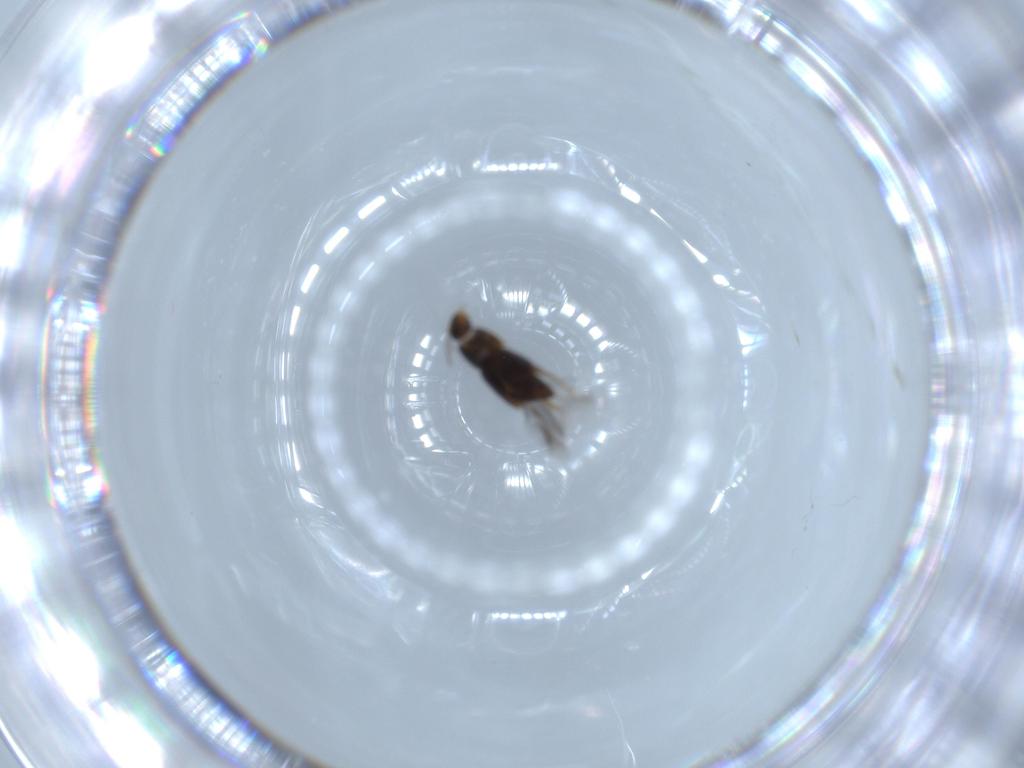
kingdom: Animalia
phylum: Arthropoda
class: Insecta
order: Coleoptera
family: Ptiliidae
